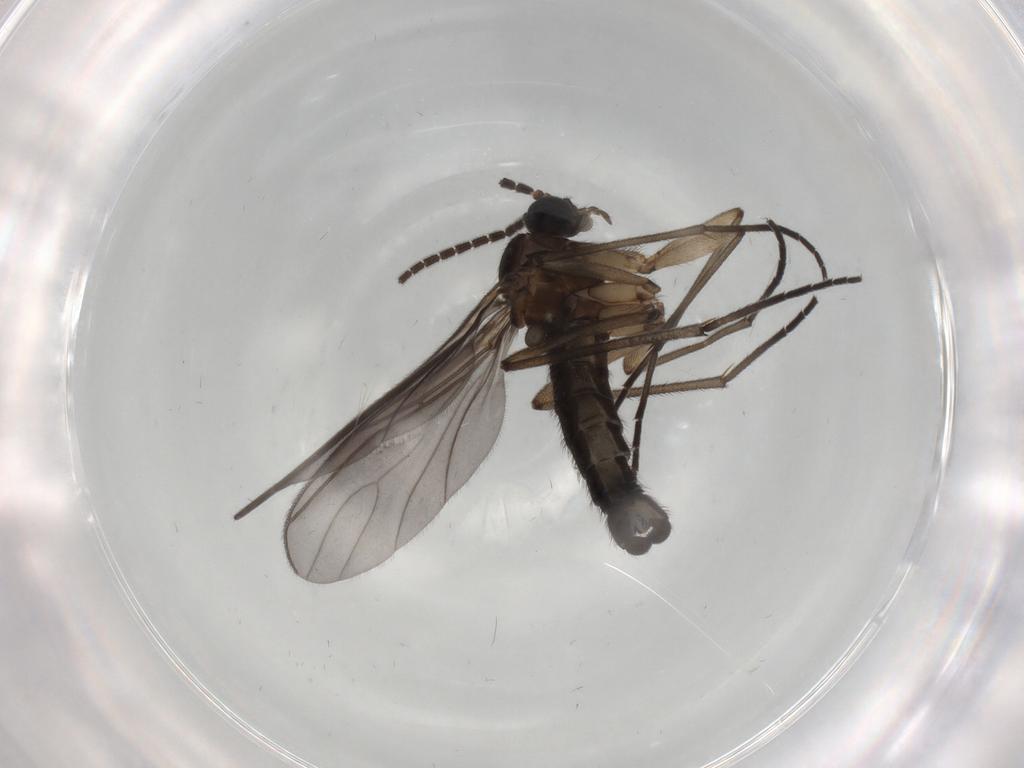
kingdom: Animalia
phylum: Arthropoda
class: Insecta
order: Diptera
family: Sciaridae
